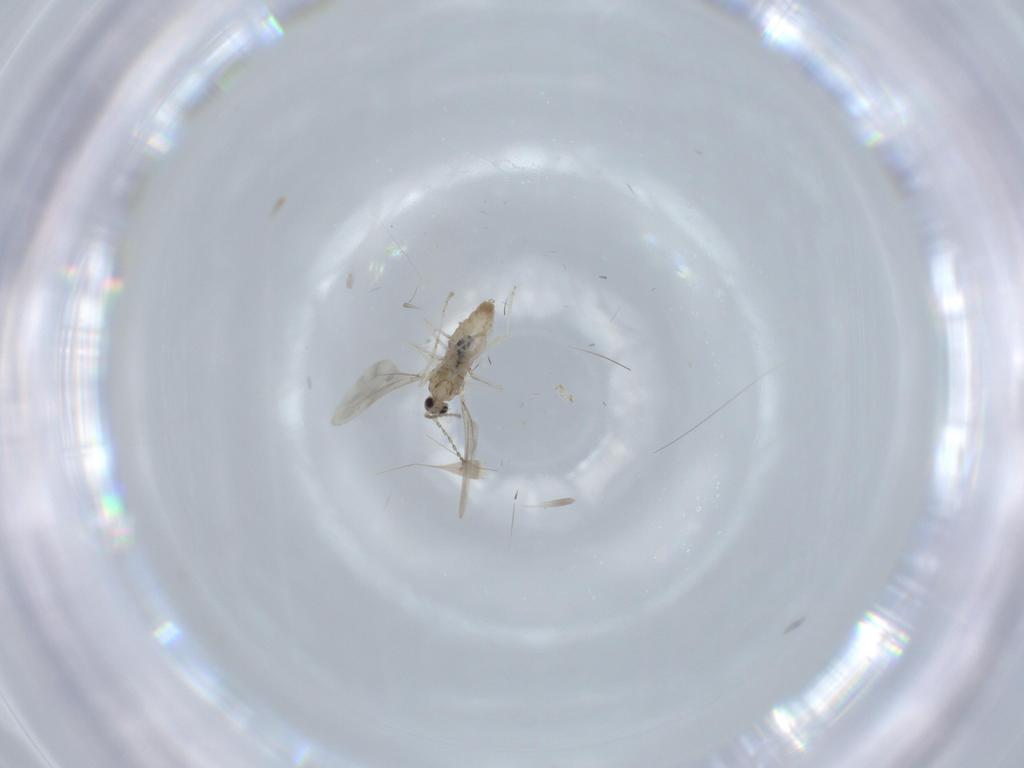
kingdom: Animalia
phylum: Arthropoda
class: Insecta
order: Diptera
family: Cecidomyiidae
